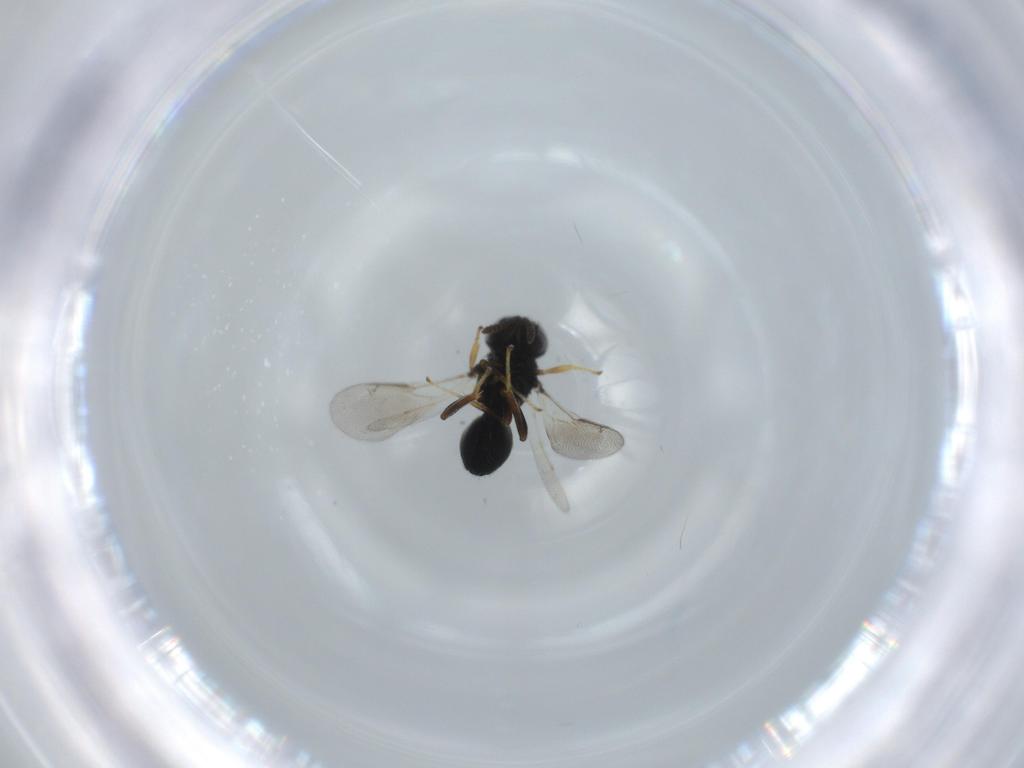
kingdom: Animalia
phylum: Arthropoda
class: Insecta
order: Hymenoptera
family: Pteromalidae
